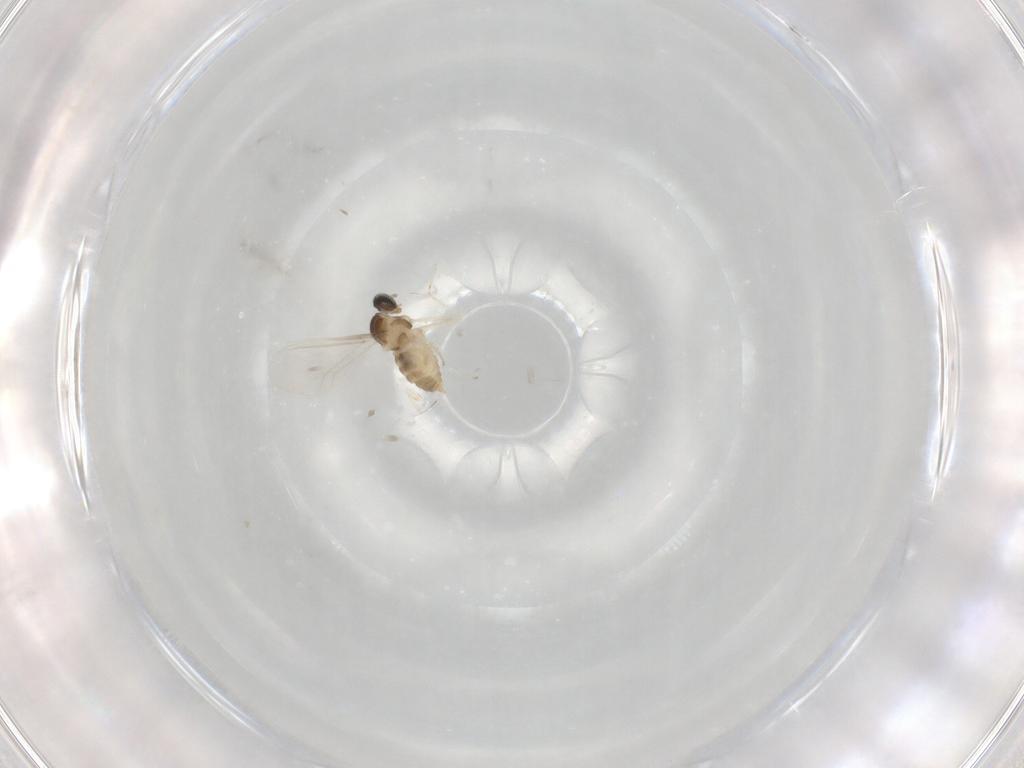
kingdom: Animalia
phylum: Arthropoda
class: Insecta
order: Diptera
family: Cecidomyiidae
